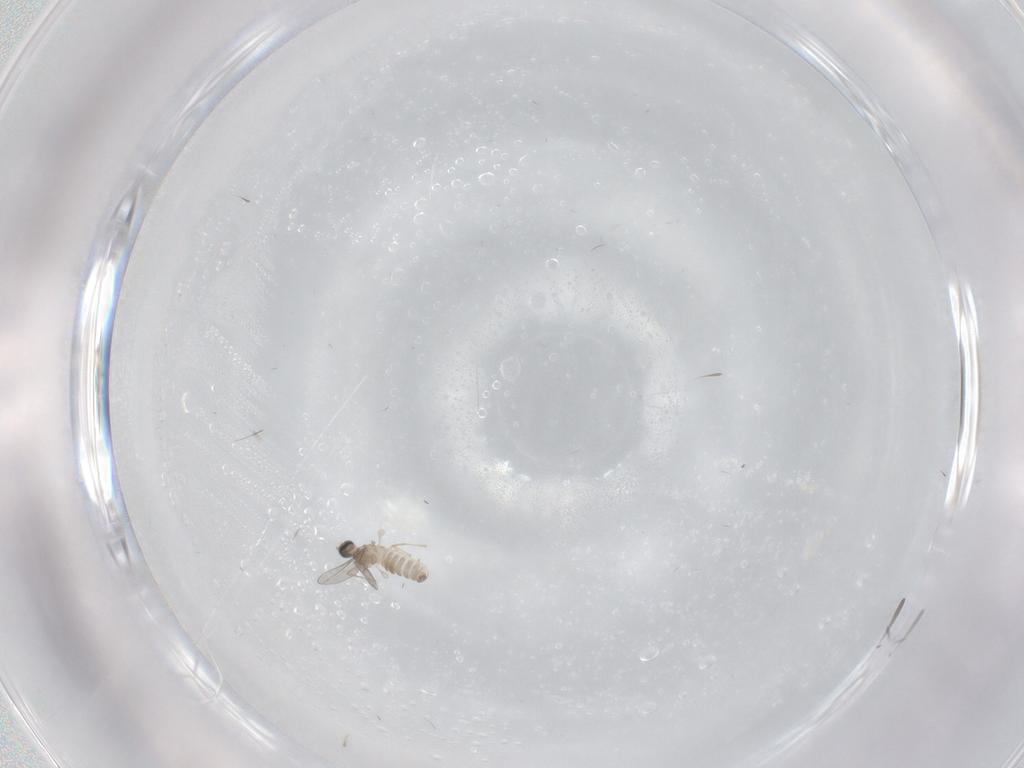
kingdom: Animalia
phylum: Arthropoda
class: Insecta
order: Diptera
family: Cecidomyiidae
